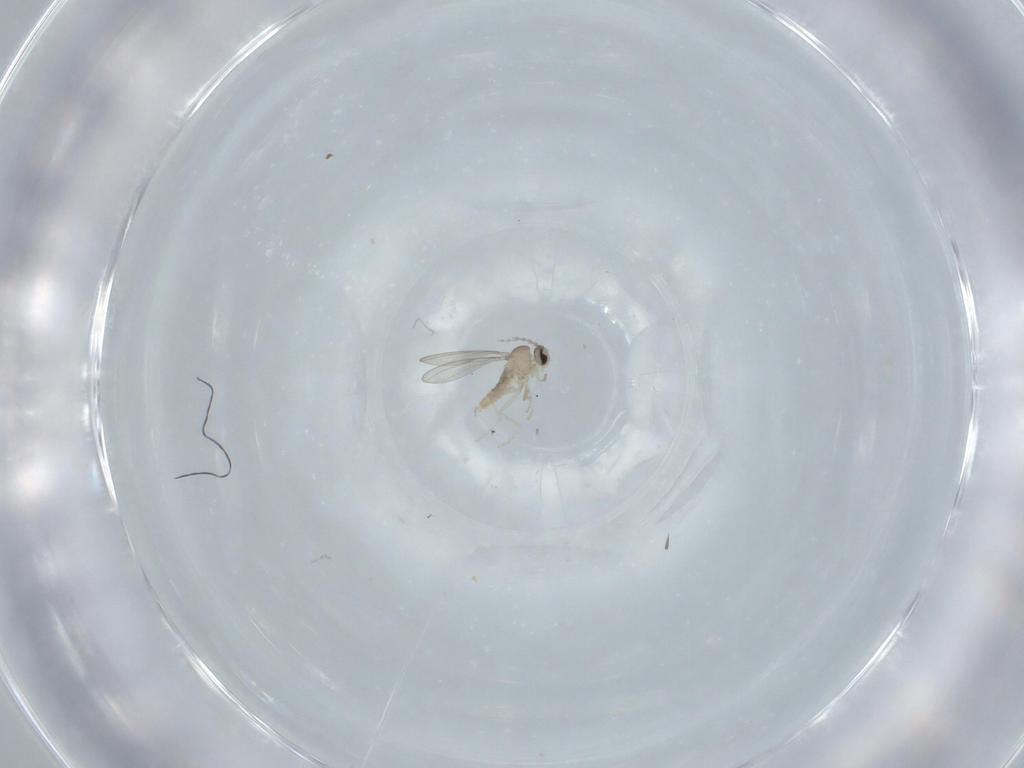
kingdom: Animalia
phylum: Arthropoda
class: Insecta
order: Diptera
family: Cecidomyiidae
